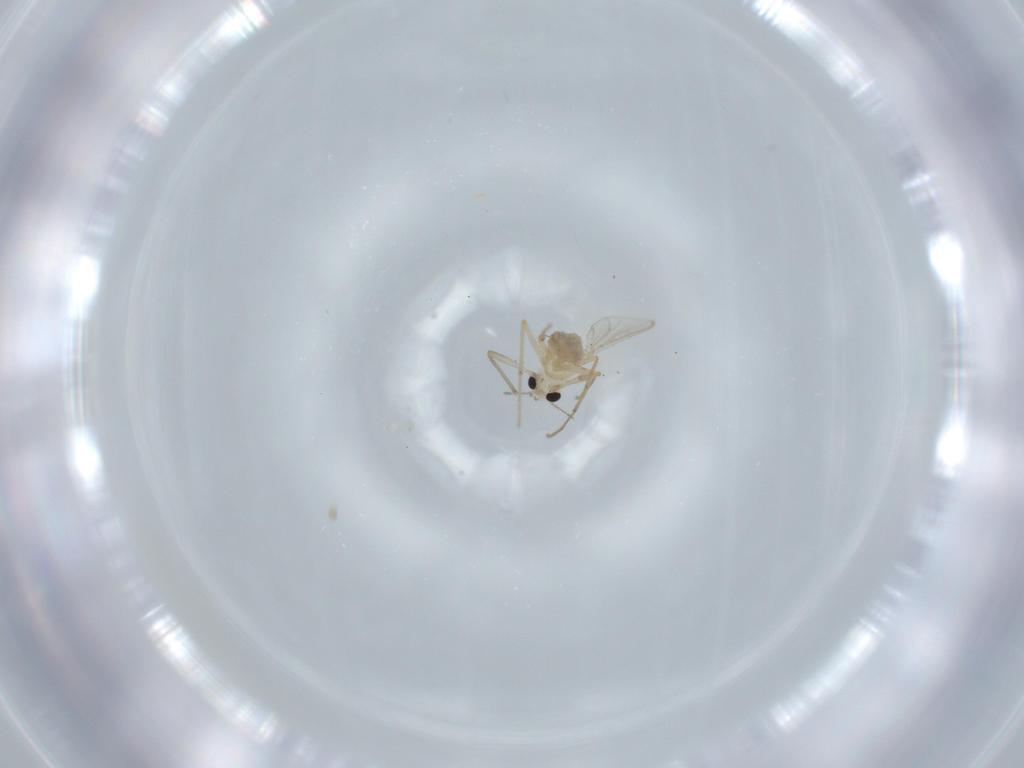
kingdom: Animalia
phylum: Arthropoda
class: Insecta
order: Diptera
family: Chironomidae
